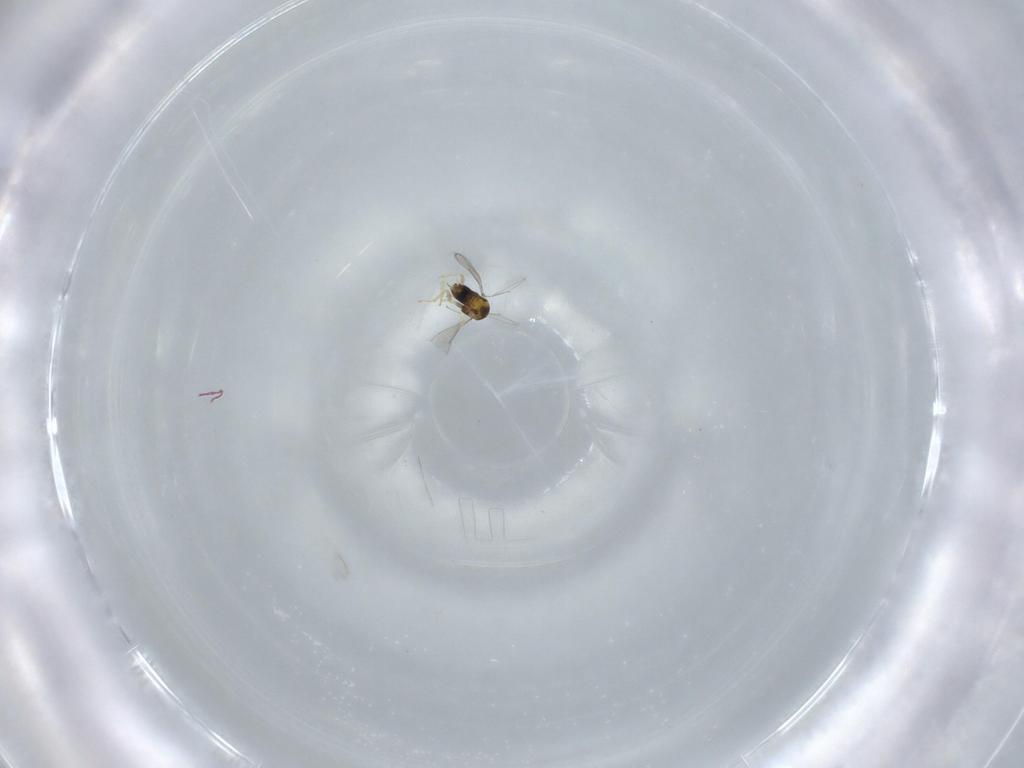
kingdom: Animalia
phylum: Arthropoda
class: Insecta
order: Hymenoptera
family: Aphelinidae
